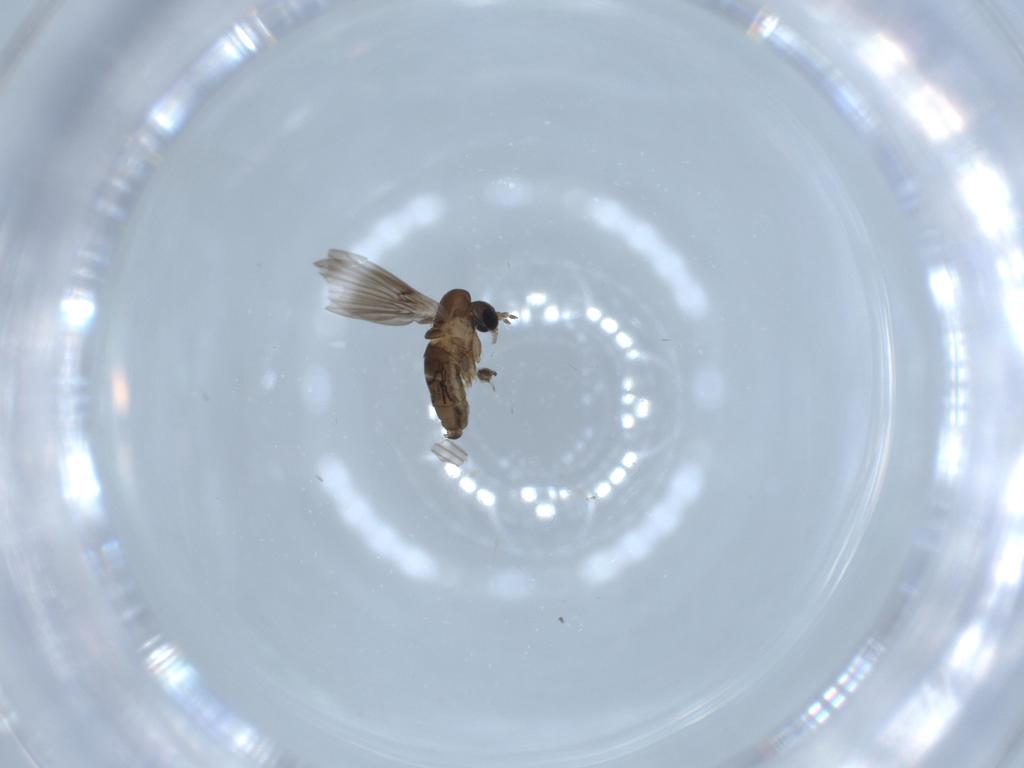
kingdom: Animalia
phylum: Arthropoda
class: Insecta
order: Diptera
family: Cecidomyiidae
